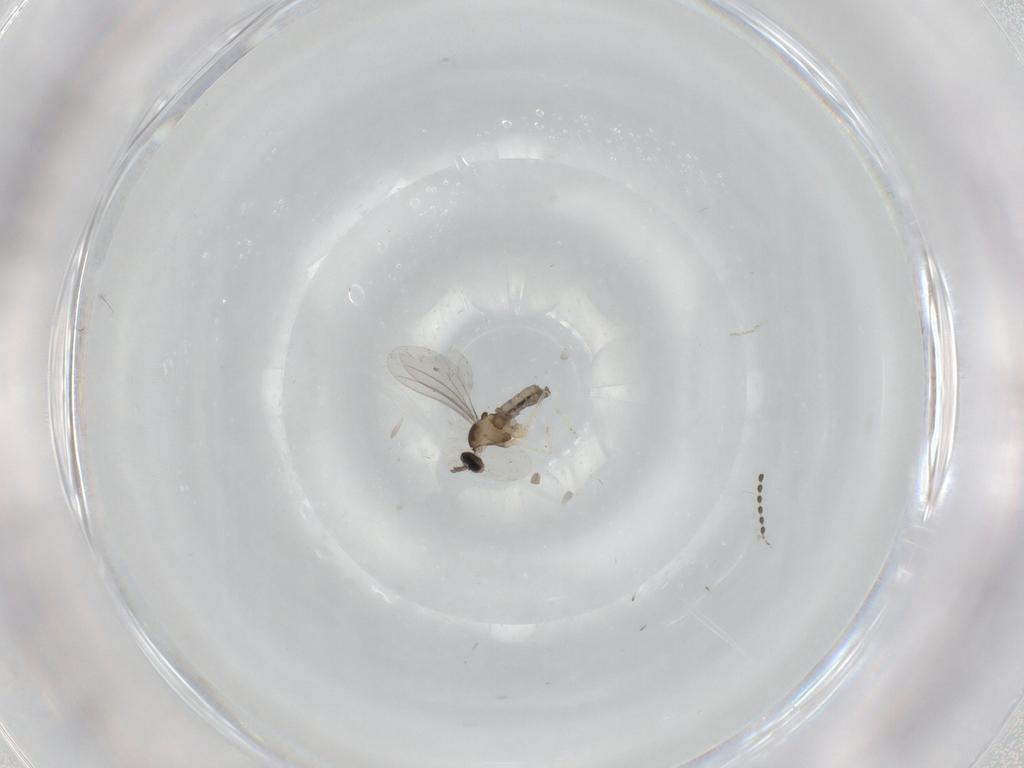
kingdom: Animalia
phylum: Arthropoda
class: Insecta
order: Diptera
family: Cecidomyiidae
